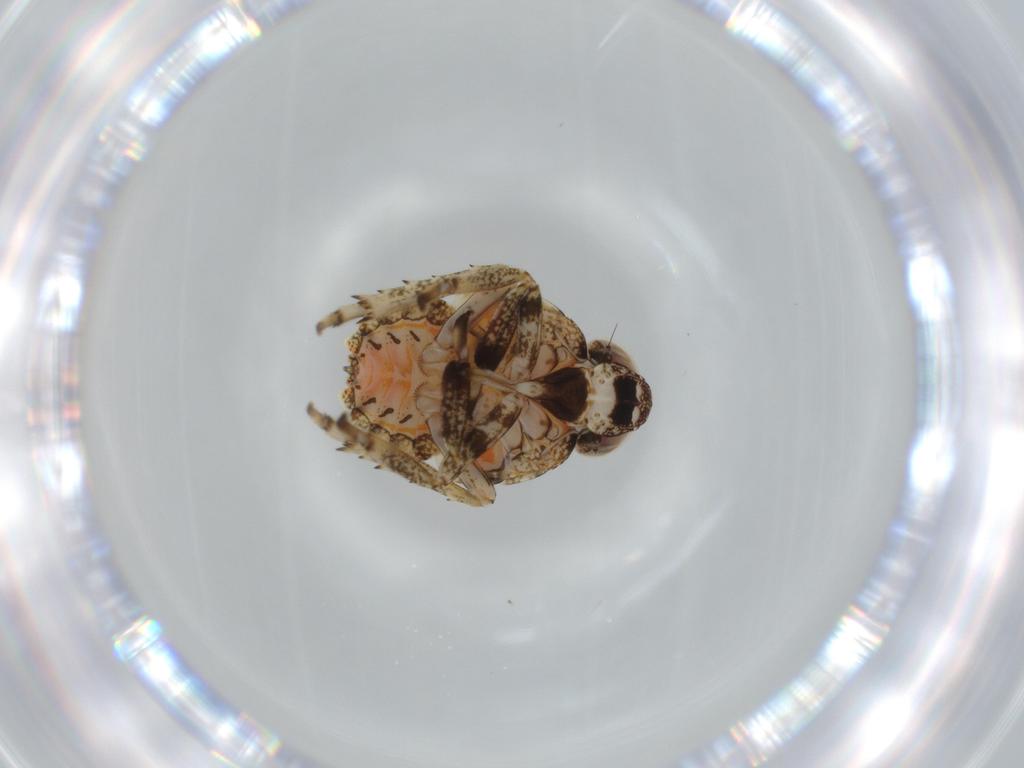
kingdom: Animalia
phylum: Arthropoda
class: Insecta
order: Hemiptera
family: Issidae
